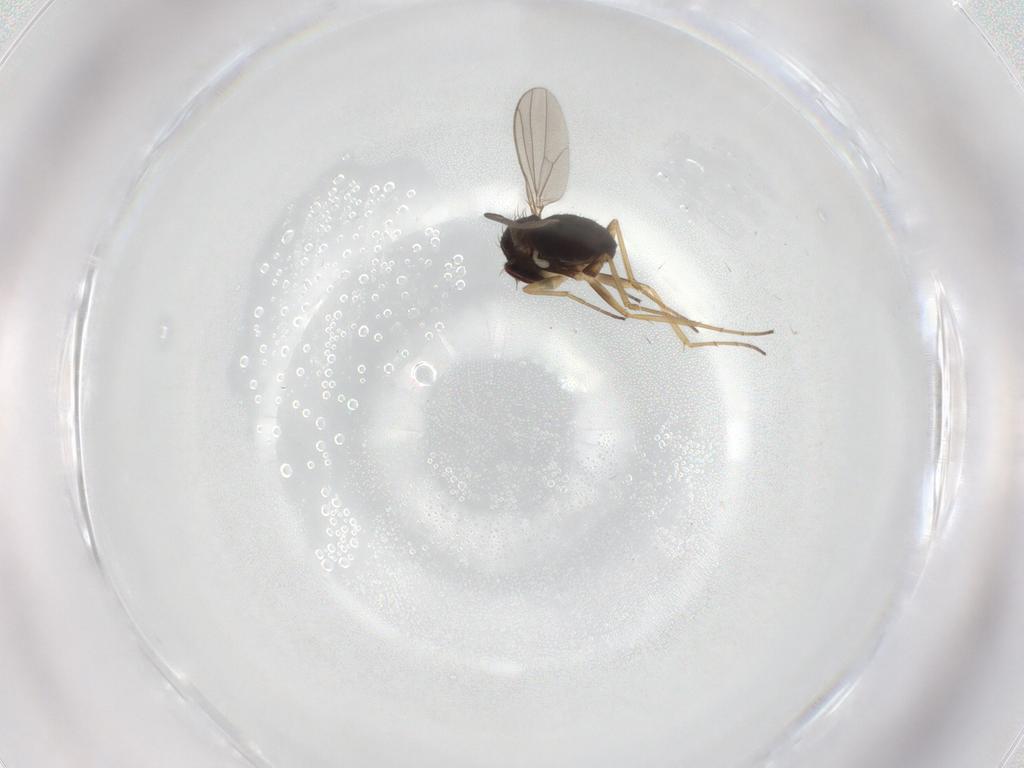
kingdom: Animalia
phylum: Arthropoda
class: Insecta
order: Diptera
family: Dolichopodidae
